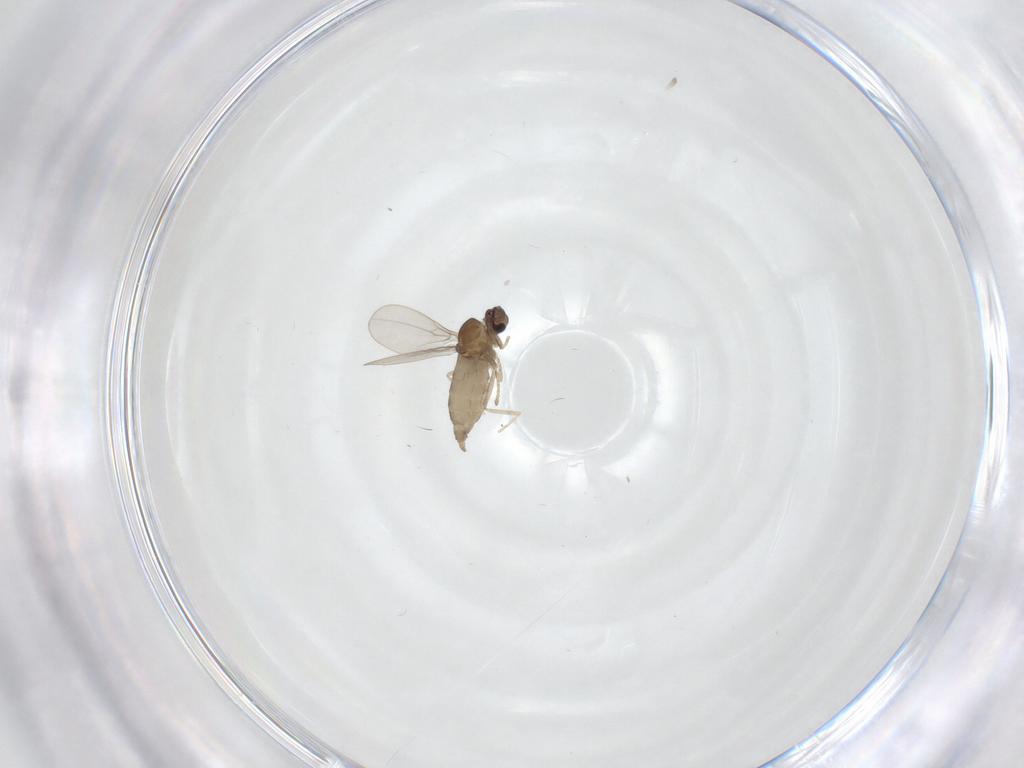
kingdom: Animalia
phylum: Arthropoda
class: Insecta
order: Diptera
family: Cecidomyiidae
